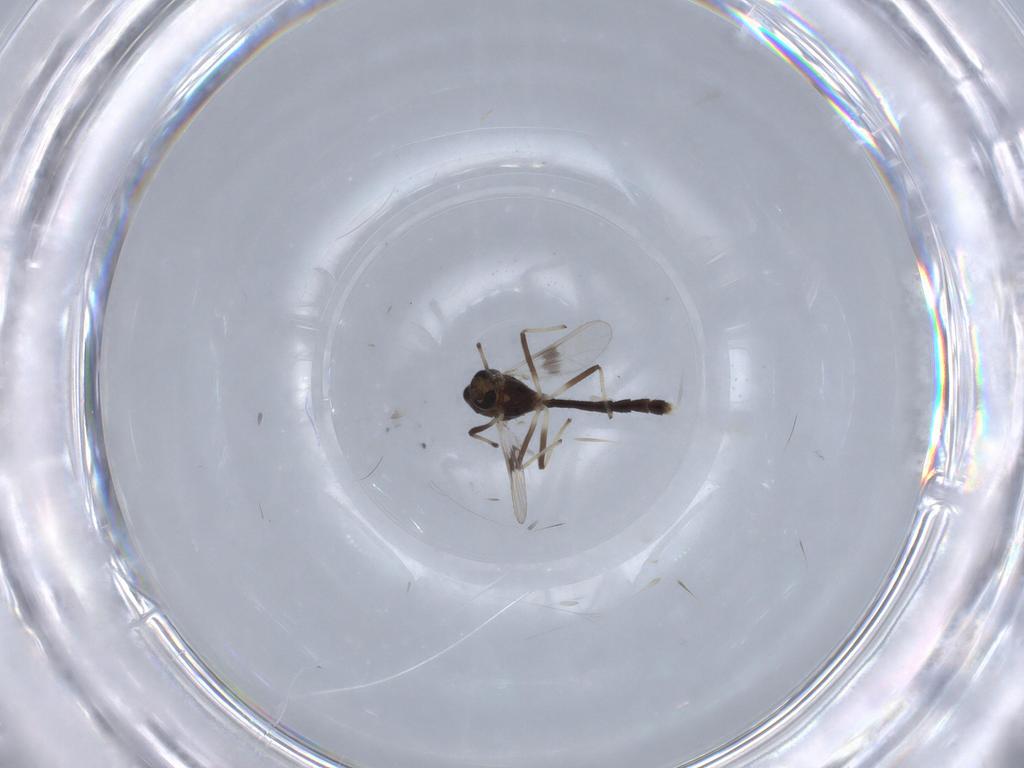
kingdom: Animalia
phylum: Arthropoda
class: Insecta
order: Diptera
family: Chironomidae
